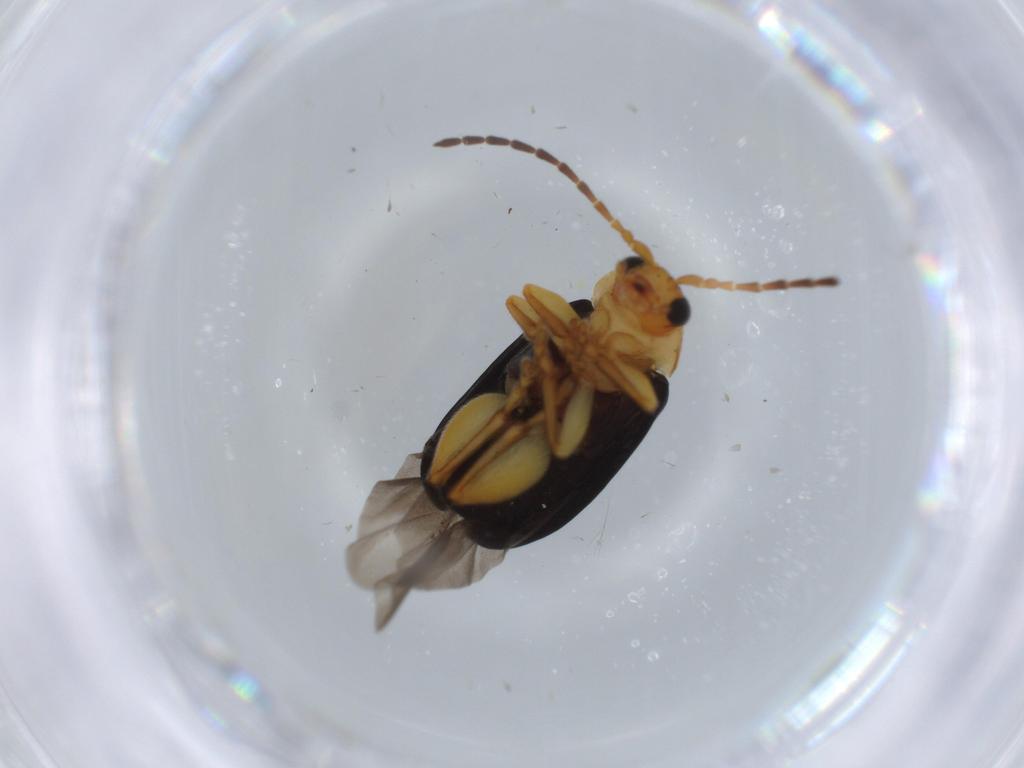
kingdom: Animalia
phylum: Arthropoda
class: Insecta
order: Coleoptera
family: Chrysomelidae
